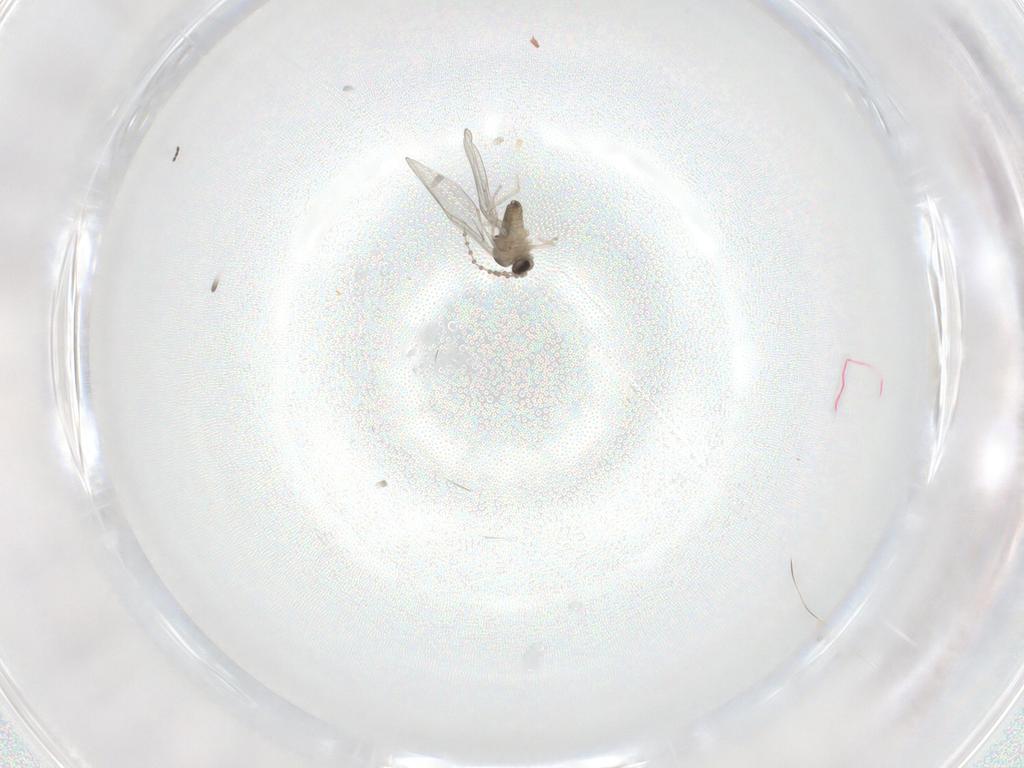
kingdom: Animalia
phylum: Arthropoda
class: Insecta
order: Diptera
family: Cecidomyiidae
